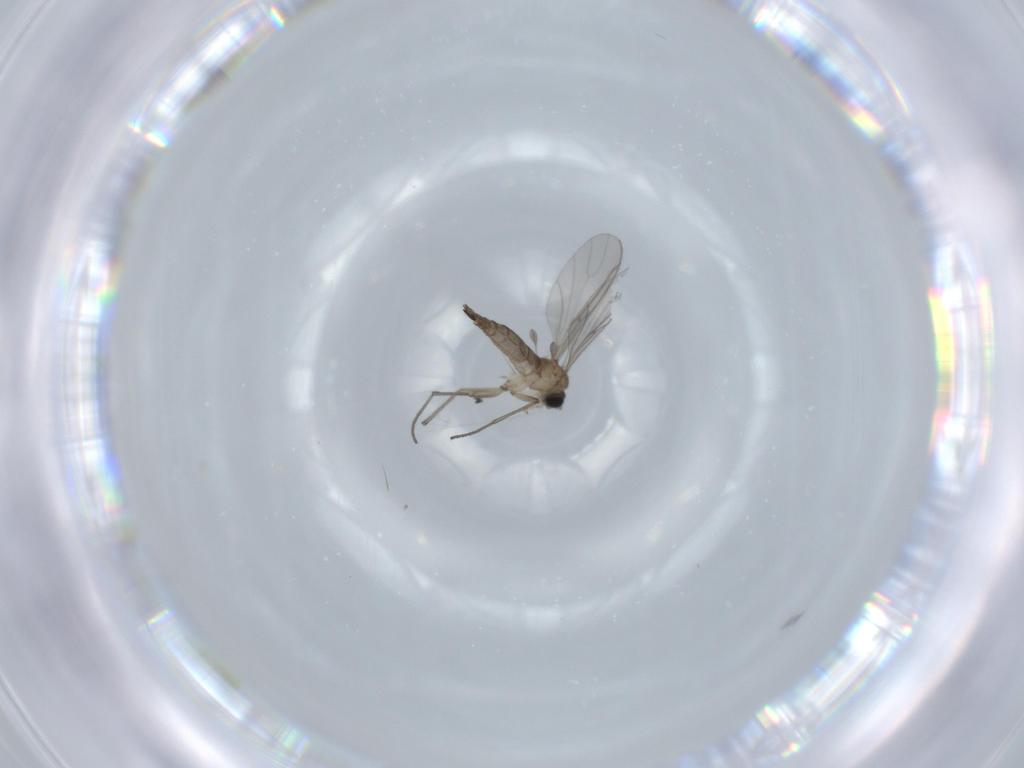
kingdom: Animalia
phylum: Arthropoda
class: Insecta
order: Diptera
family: Sciaridae
